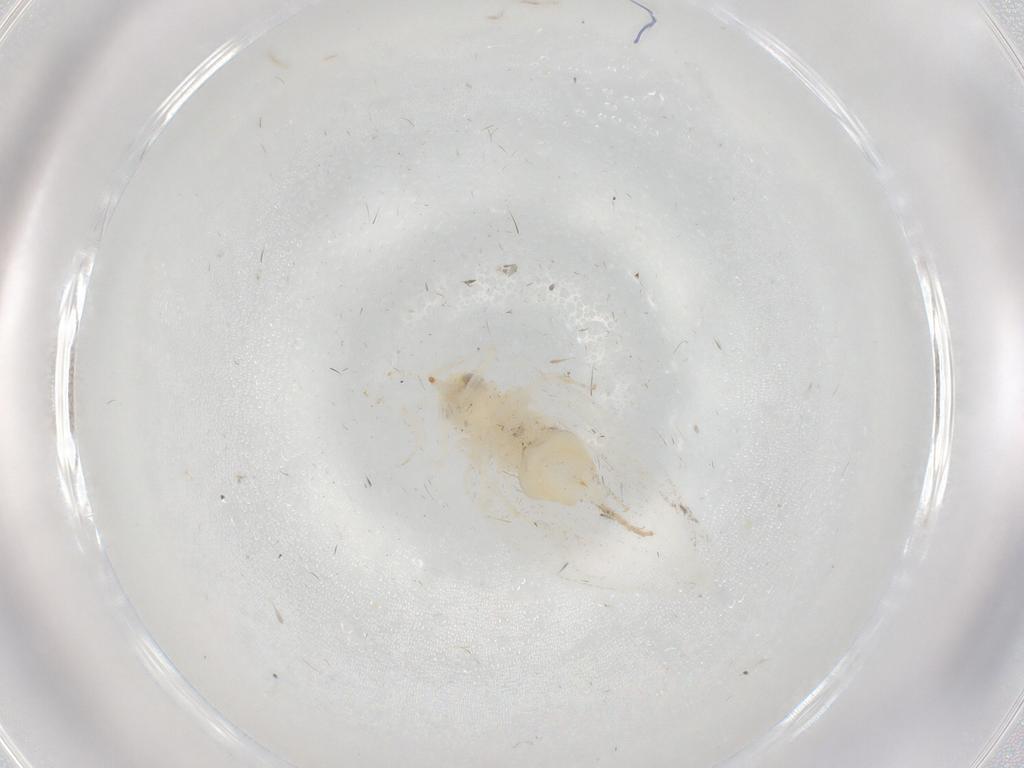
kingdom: Animalia
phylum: Arthropoda
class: Insecta
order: Hemiptera
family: Aleyrodidae
